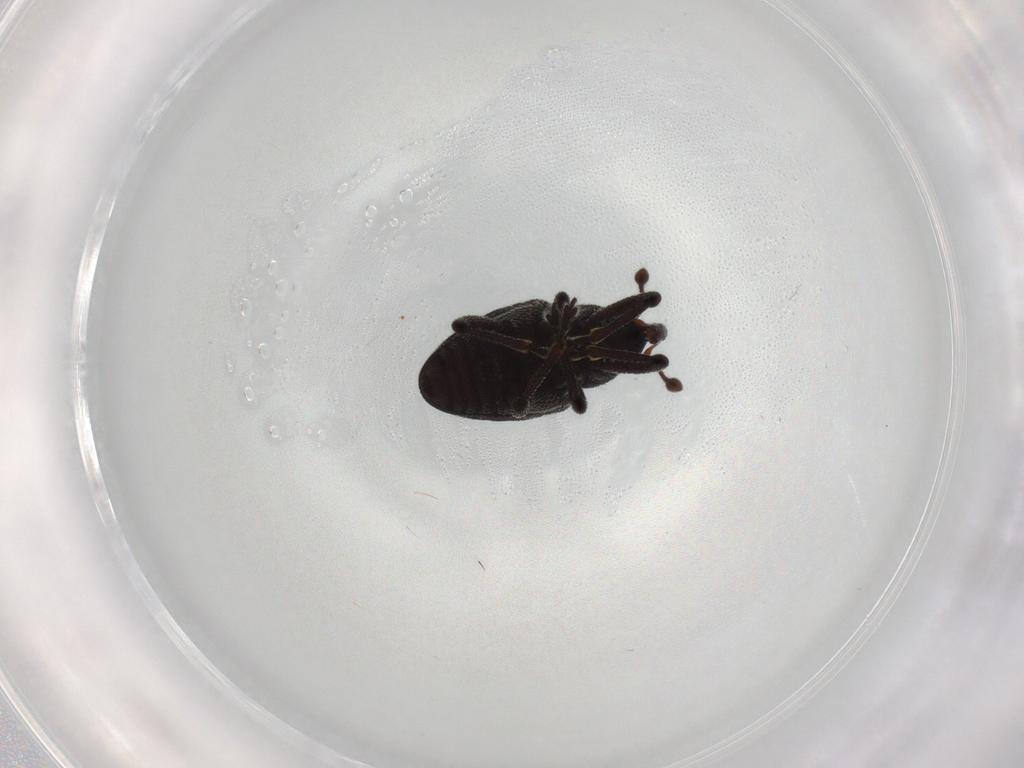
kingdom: Animalia
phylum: Arthropoda
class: Insecta
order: Coleoptera
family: Curculionidae
